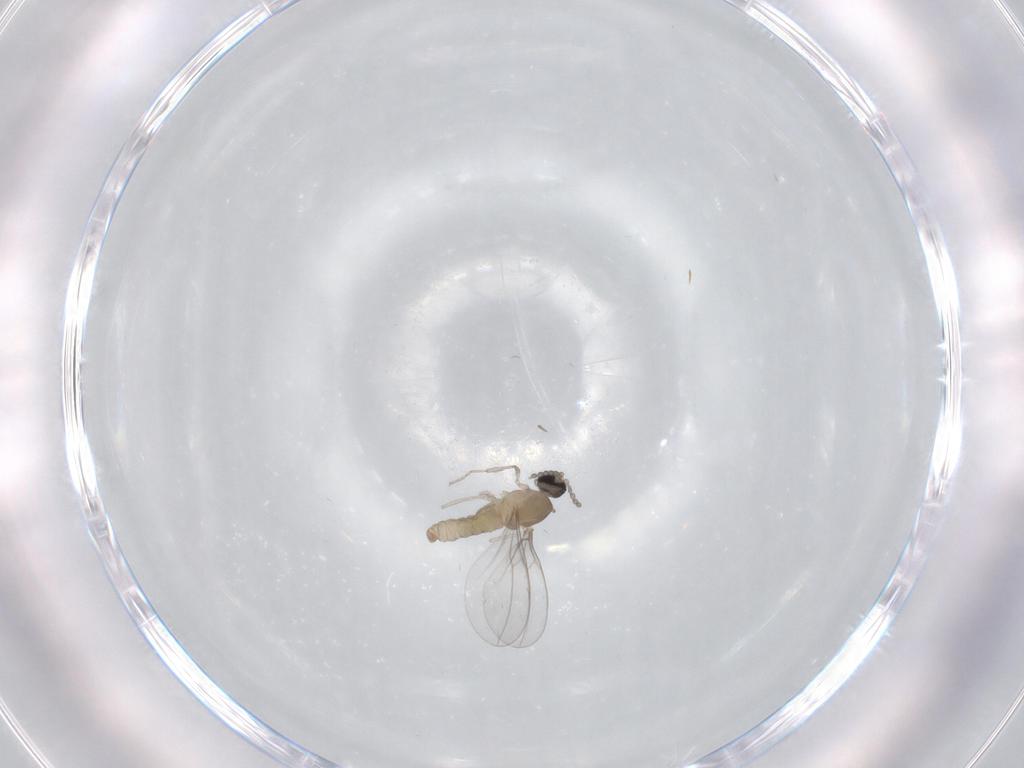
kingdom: Animalia
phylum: Arthropoda
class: Insecta
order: Diptera
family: Cecidomyiidae
